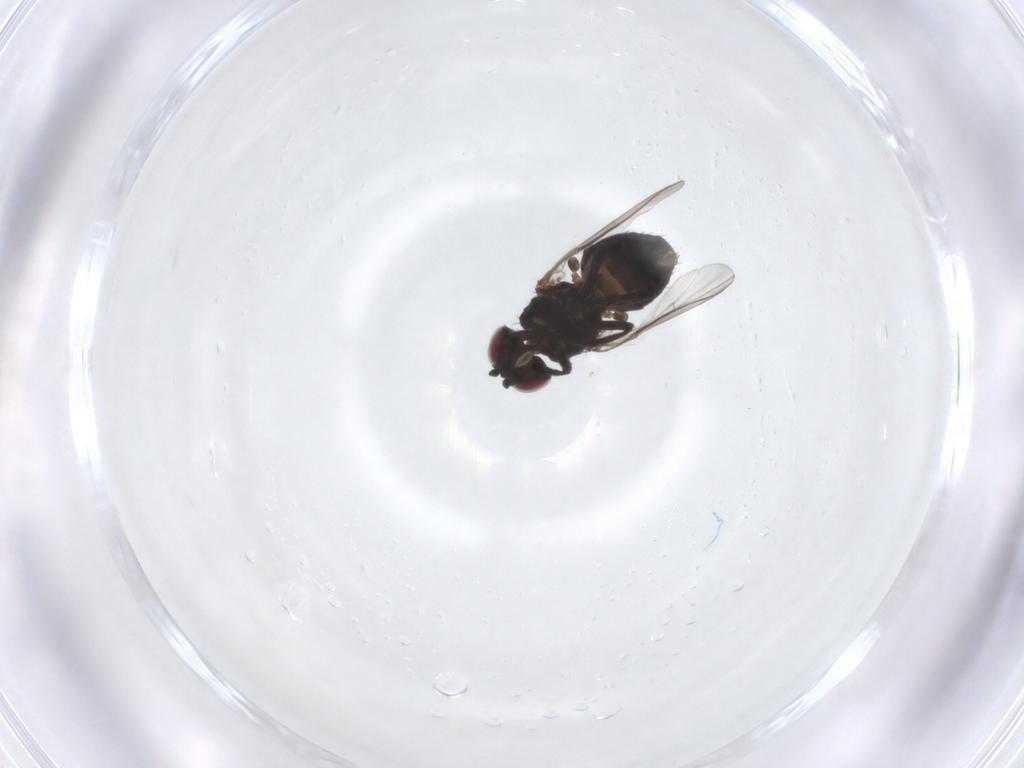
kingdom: Animalia
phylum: Arthropoda
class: Insecta
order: Diptera
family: Agromyzidae
